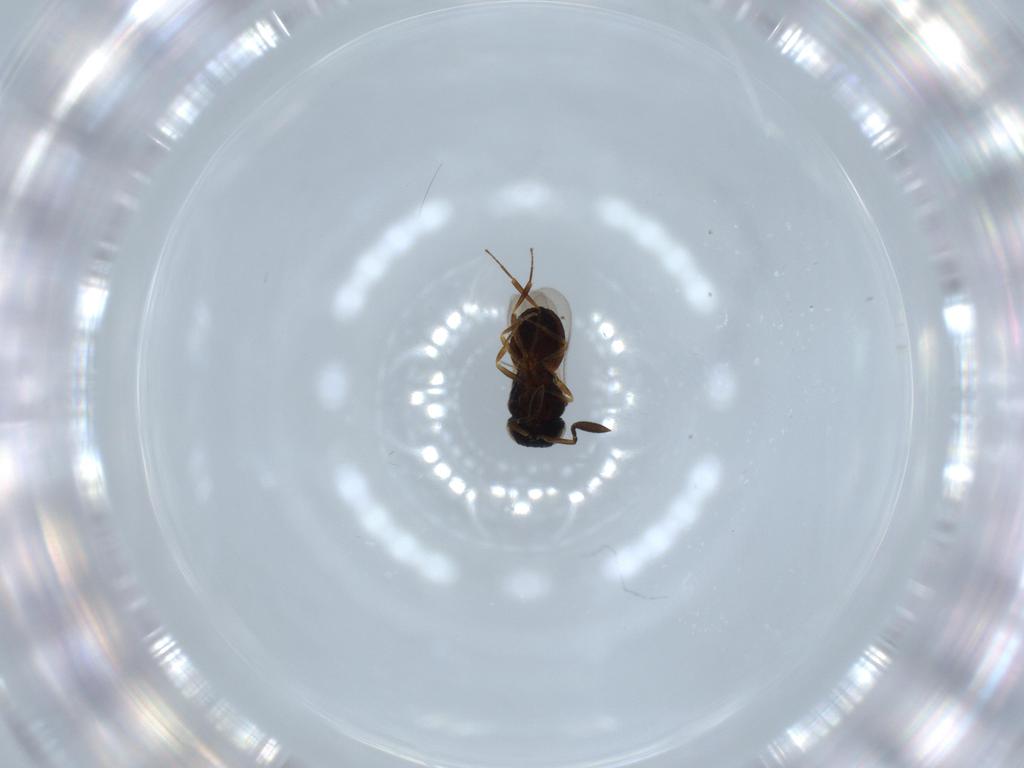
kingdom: Animalia
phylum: Arthropoda
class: Insecta
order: Hymenoptera
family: Scelionidae
